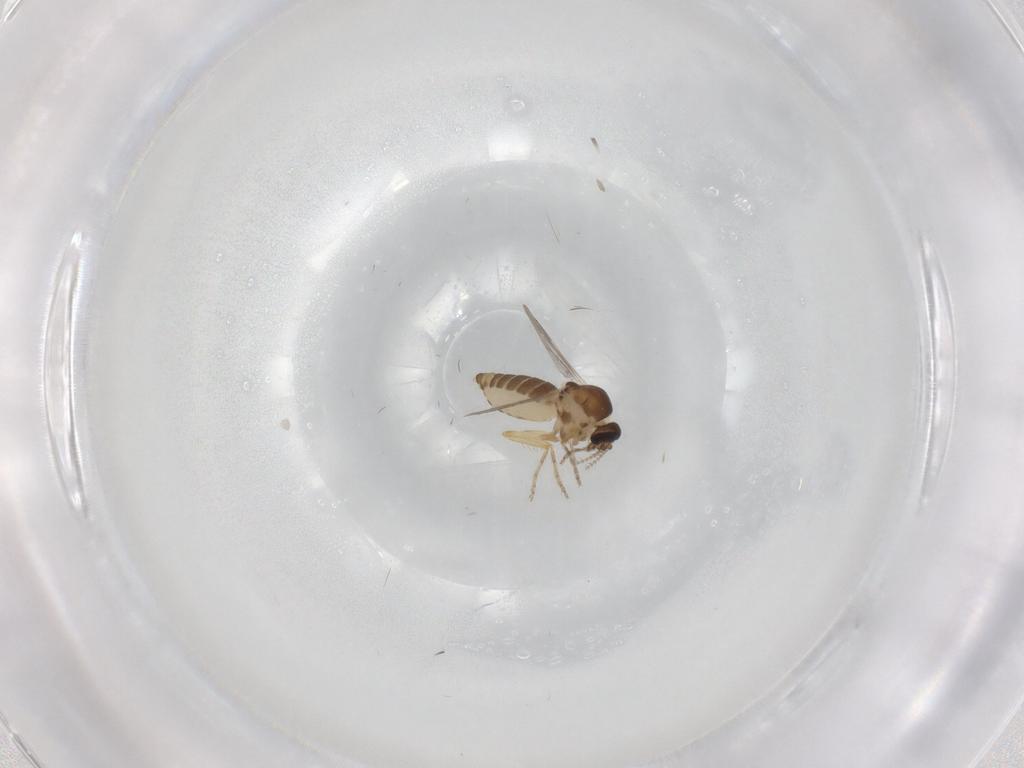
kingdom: Animalia
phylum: Arthropoda
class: Insecta
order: Diptera
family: Ceratopogonidae
